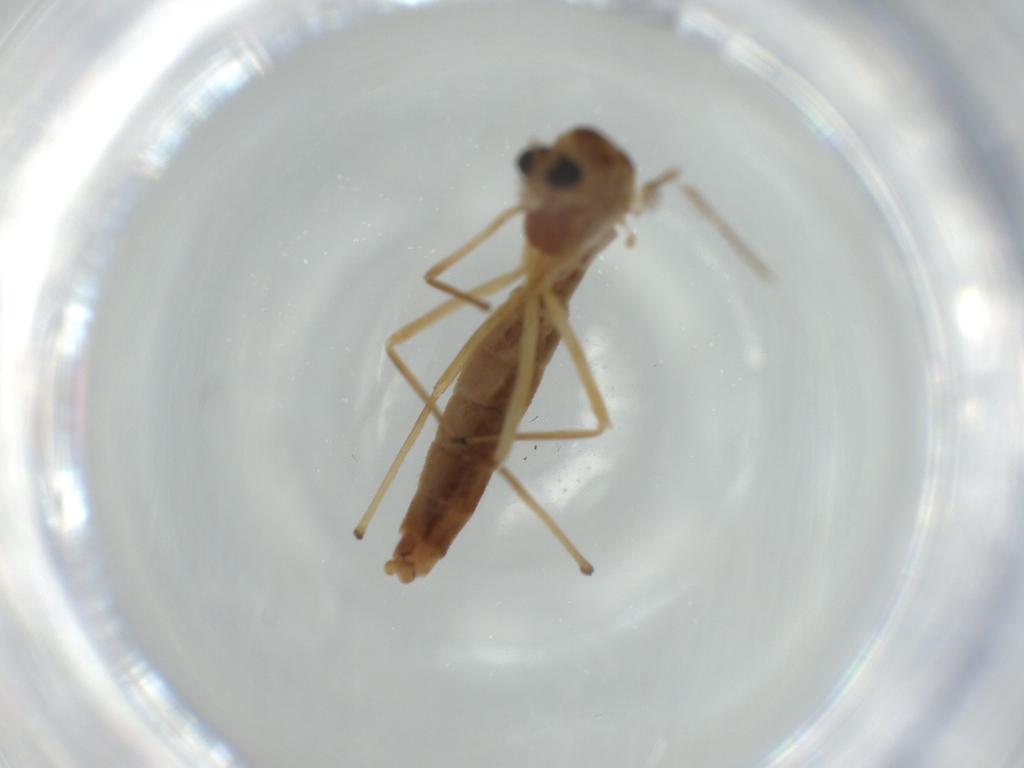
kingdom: Animalia
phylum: Arthropoda
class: Insecta
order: Diptera
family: Chironomidae
